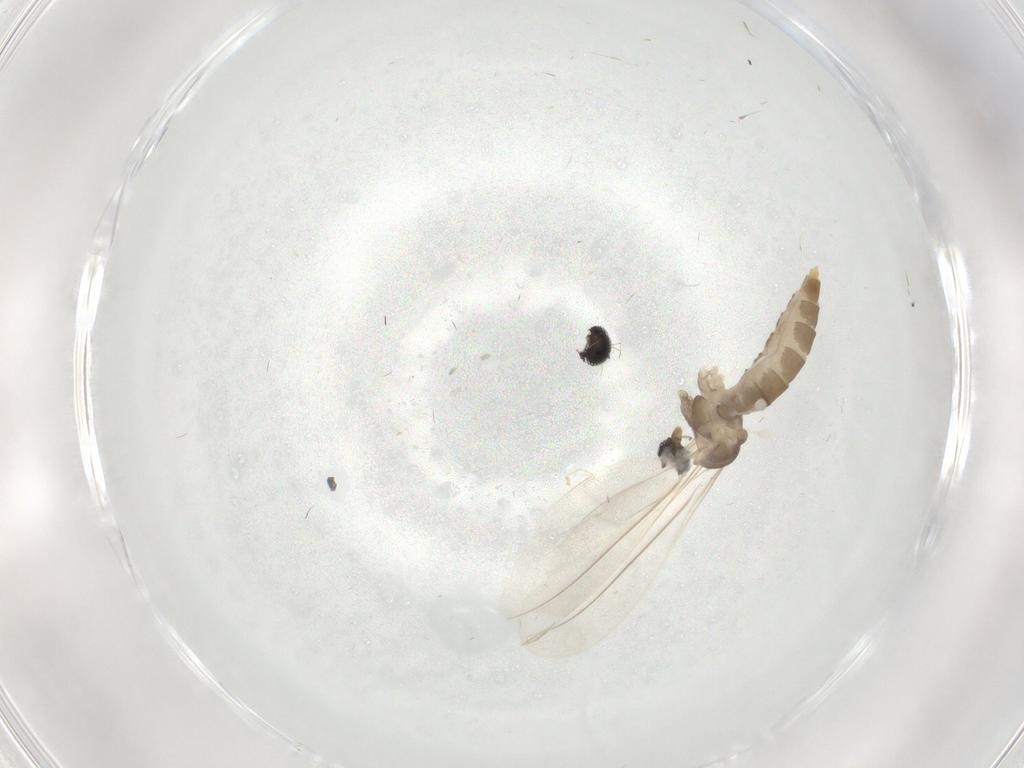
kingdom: Animalia
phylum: Arthropoda
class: Insecta
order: Diptera
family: Cecidomyiidae
